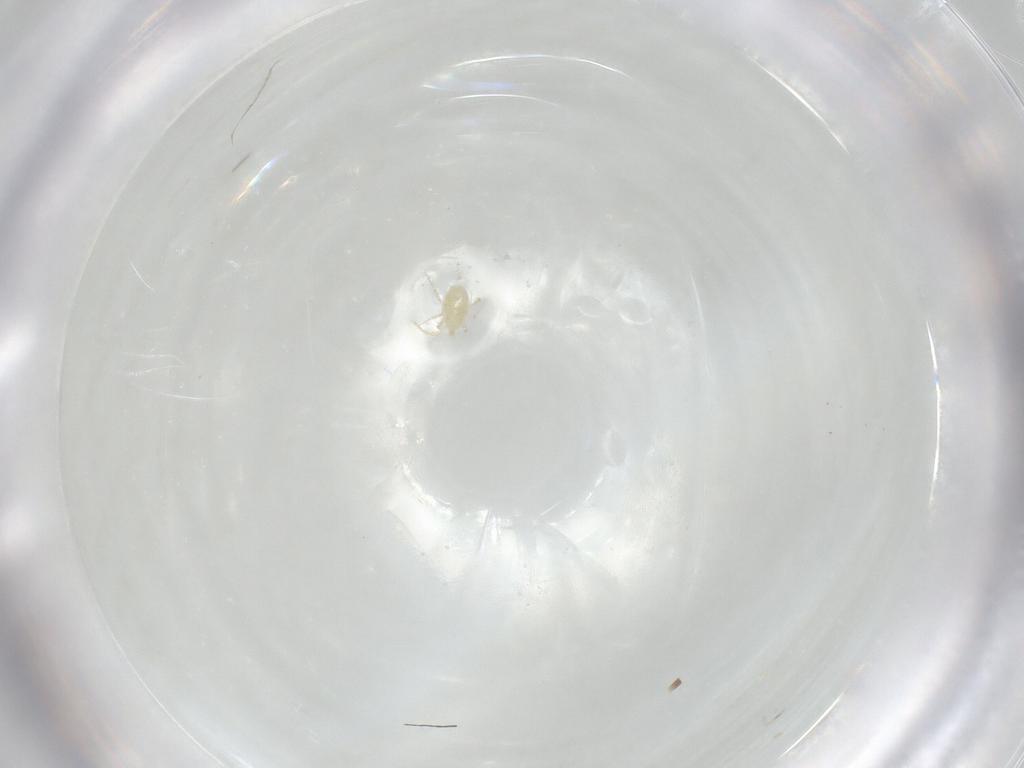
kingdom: Animalia
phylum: Arthropoda
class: Insecta
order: Diptera
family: Cecidomyiidae
